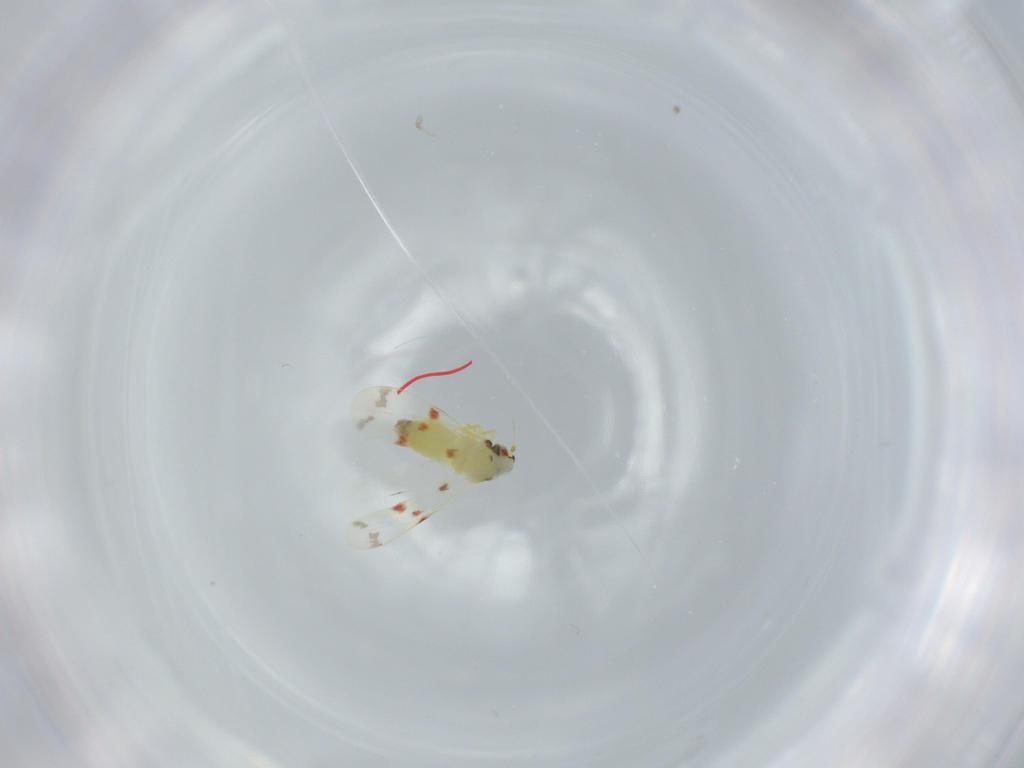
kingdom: Animalia
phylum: Arthropoda
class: Insecta
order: Hemiptera
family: Aleyrodidae
